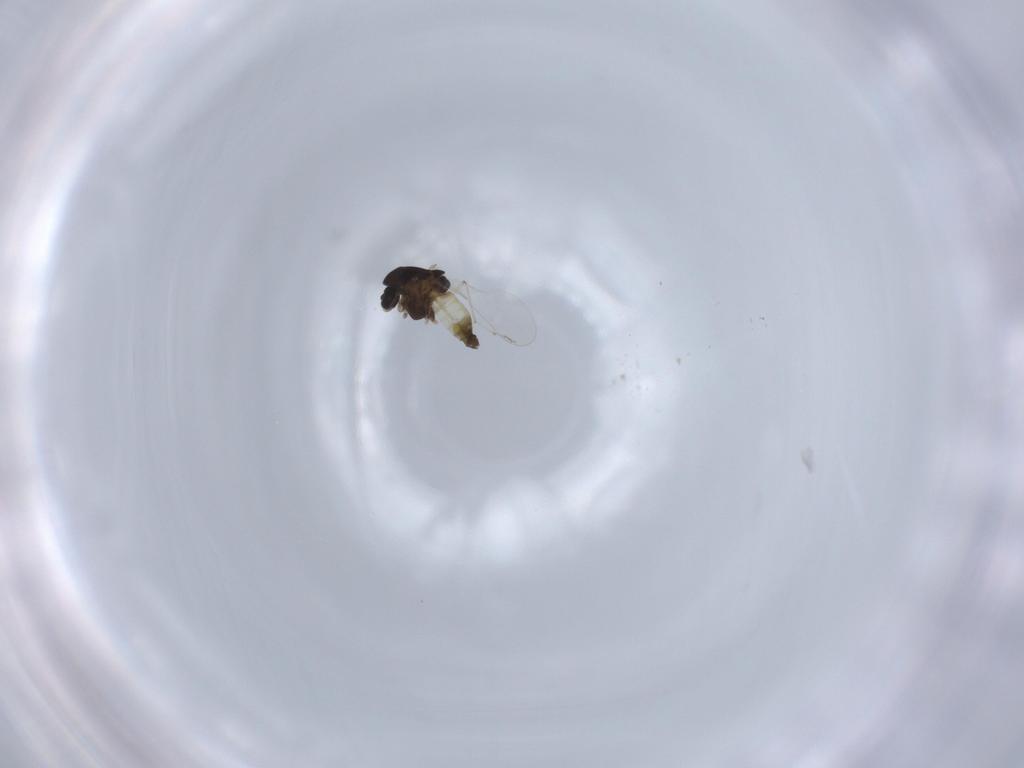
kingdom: Animalia
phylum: Arthropoda
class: Insecta
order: Diptera
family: Chironomidae
